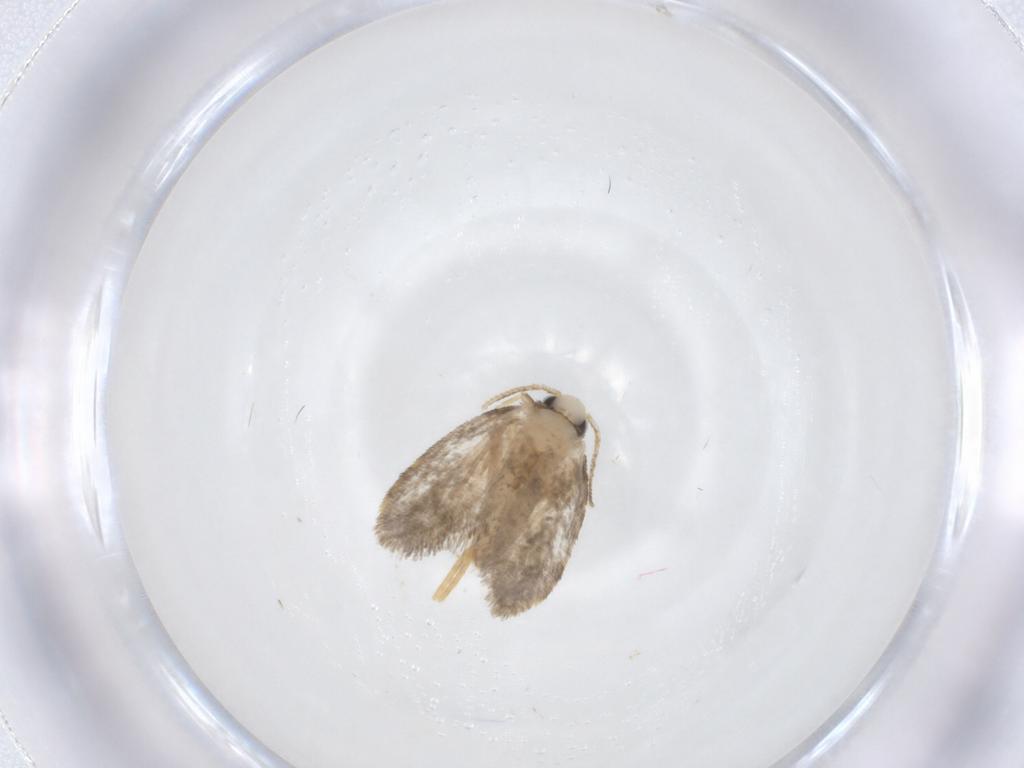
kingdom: Animalia
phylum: Arthropoda
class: Insecta
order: Lepidoptera
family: Psychidae
